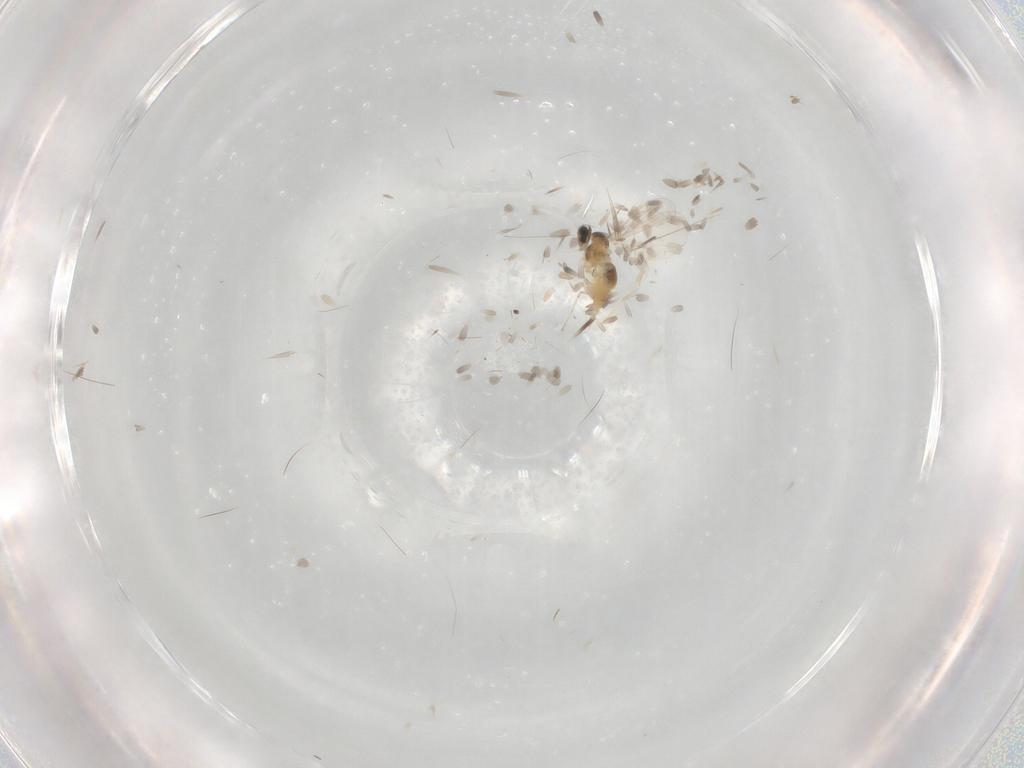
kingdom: Animalia
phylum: Arthropoda
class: Insecta
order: Diptera
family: Cecidomyiidae
